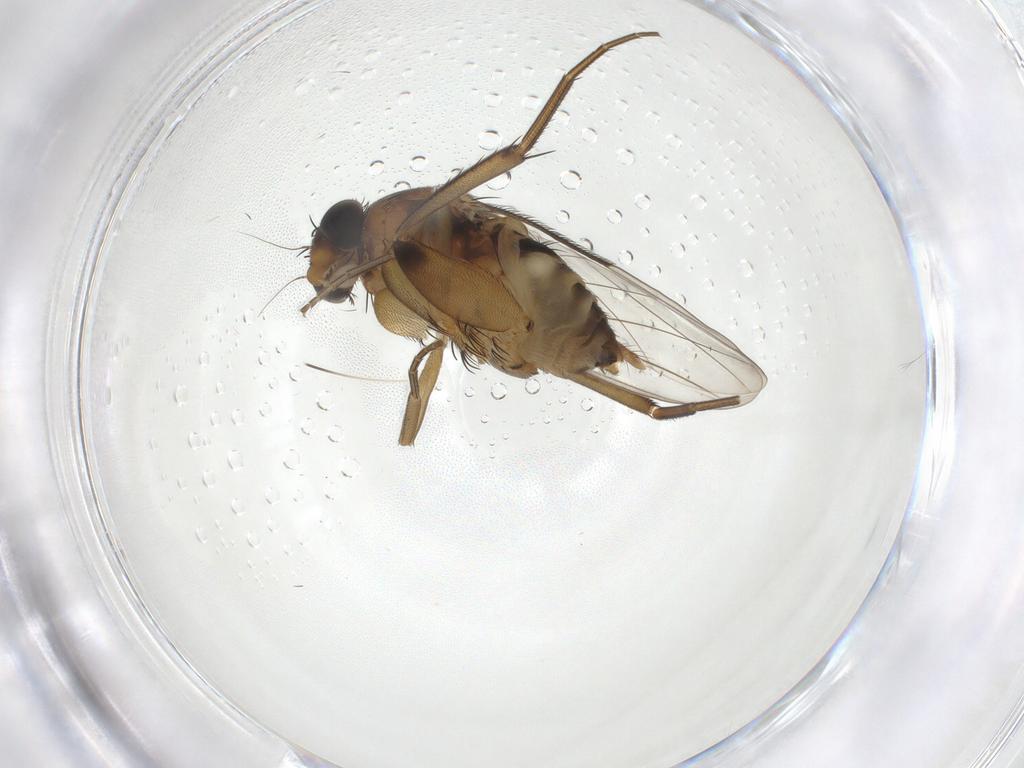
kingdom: Animalia
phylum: Arthropoda
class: Insecta
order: Diptera
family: Phoridae
